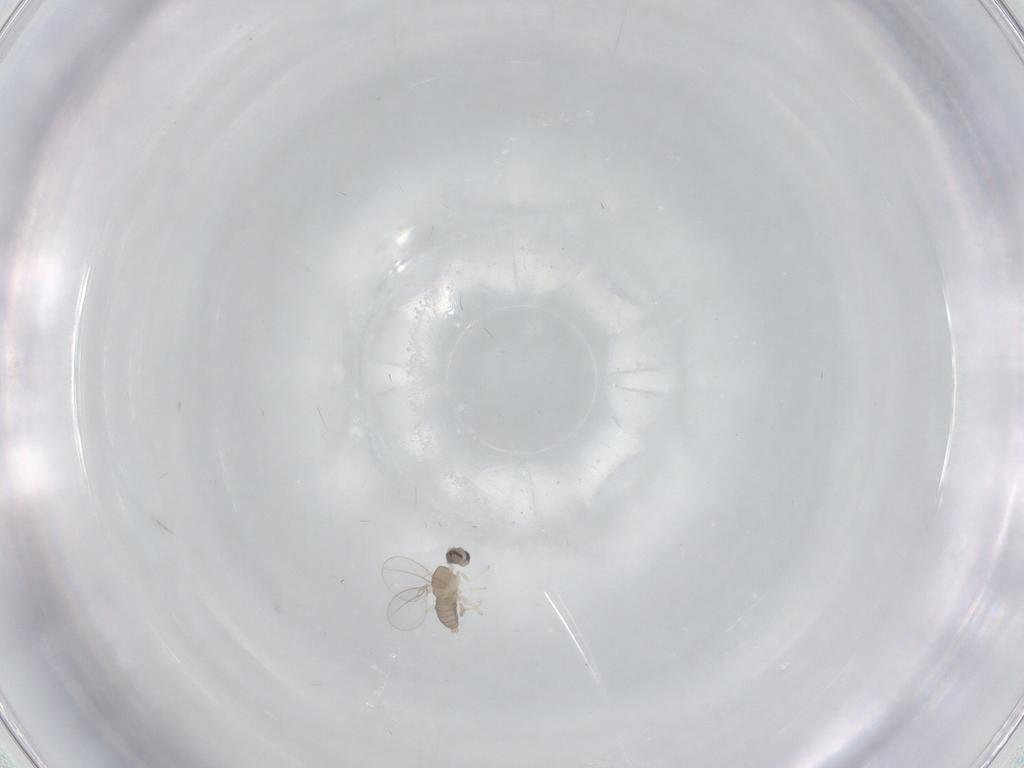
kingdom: Animalia
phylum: Arthropoda
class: Insecta
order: Diptera
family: Cecidomyiidae
